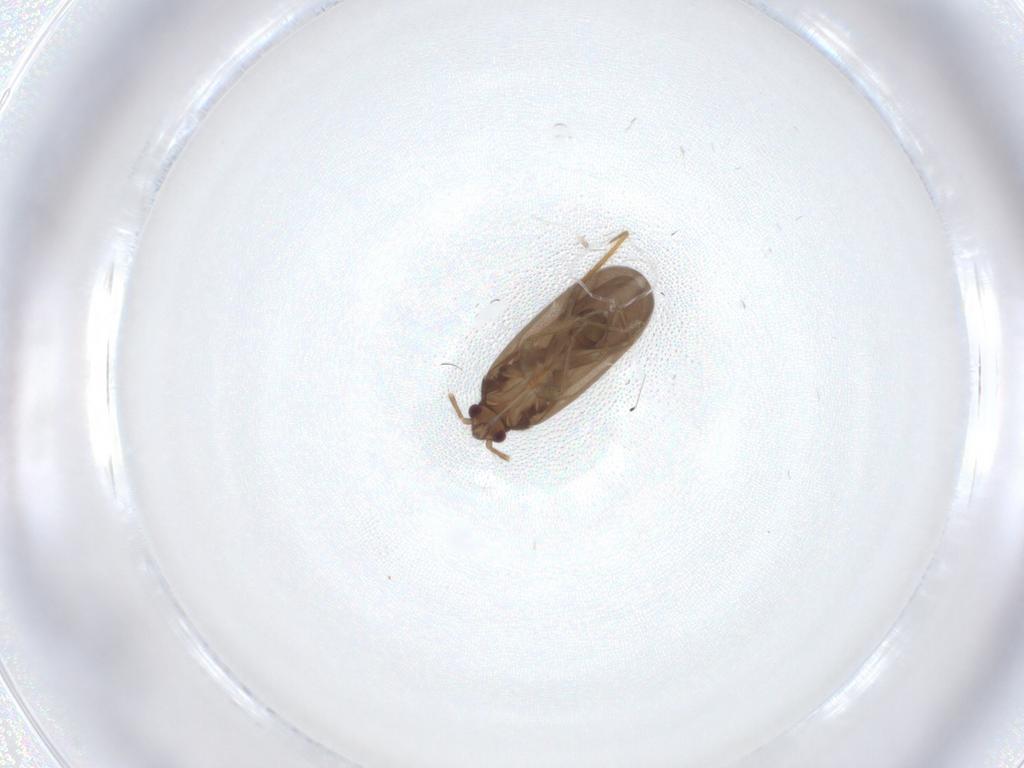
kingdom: Animalia
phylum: Arthropoda
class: Insecta
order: Hemiptera
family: Ceratocombidae
